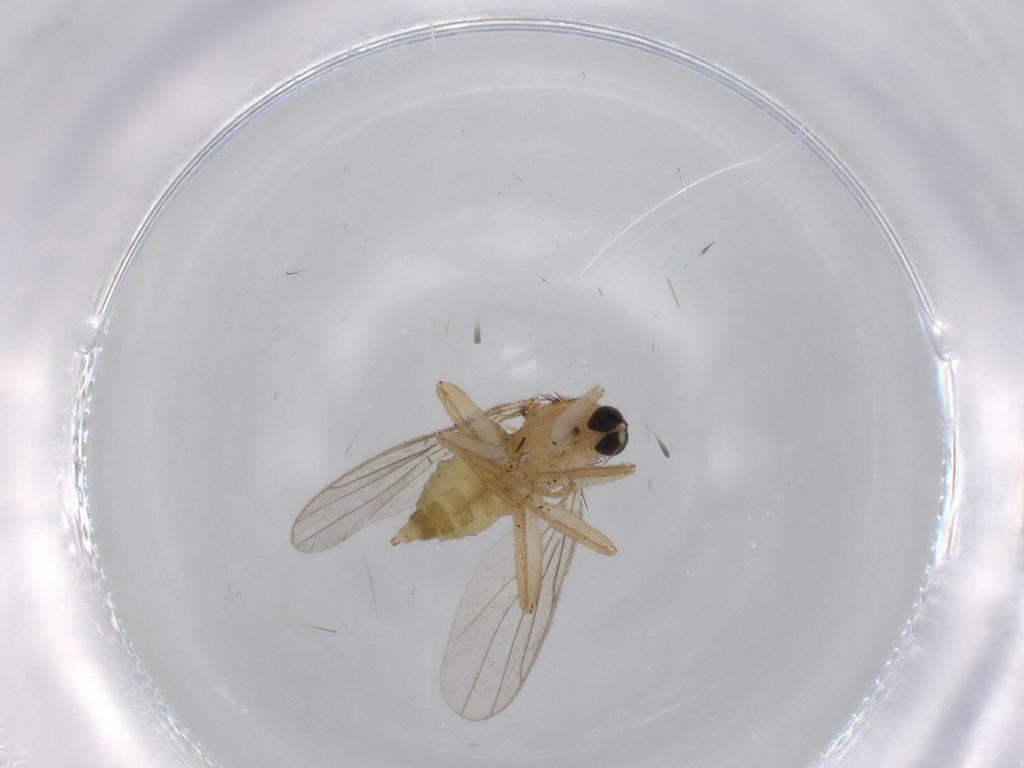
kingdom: Animalia
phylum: Arthropoda
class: Insecta
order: Diptera
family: Hybotidae
